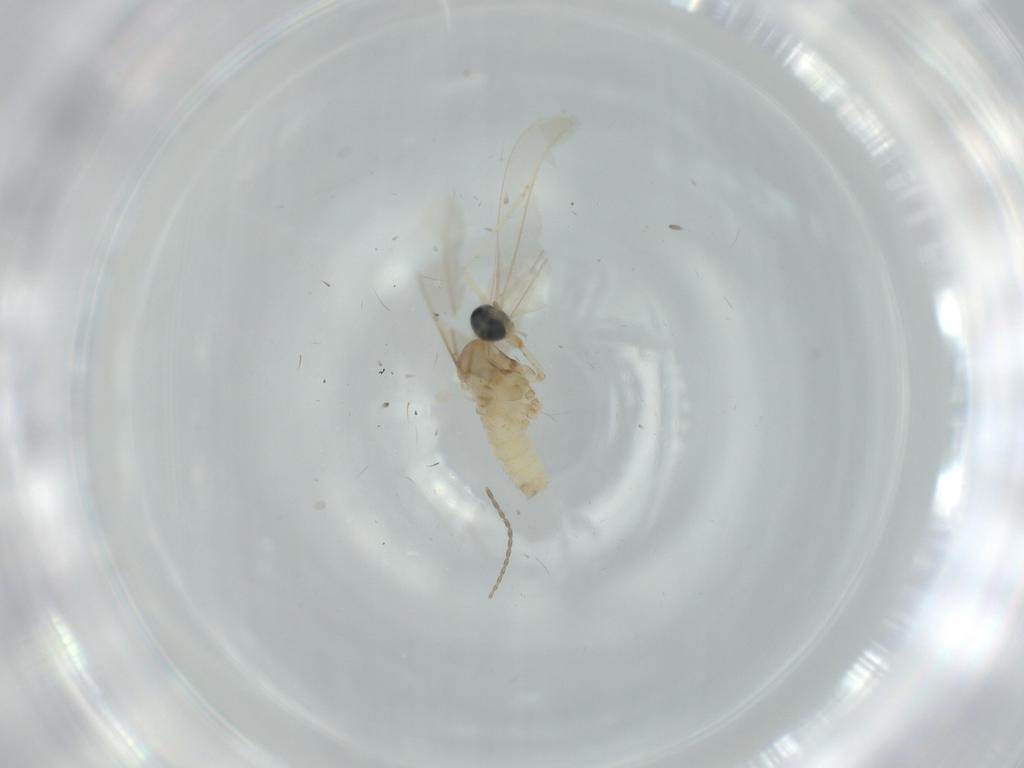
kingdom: Animalia
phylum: Arthropoda
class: Insecta
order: Diptera
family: Cecidomyiidae
